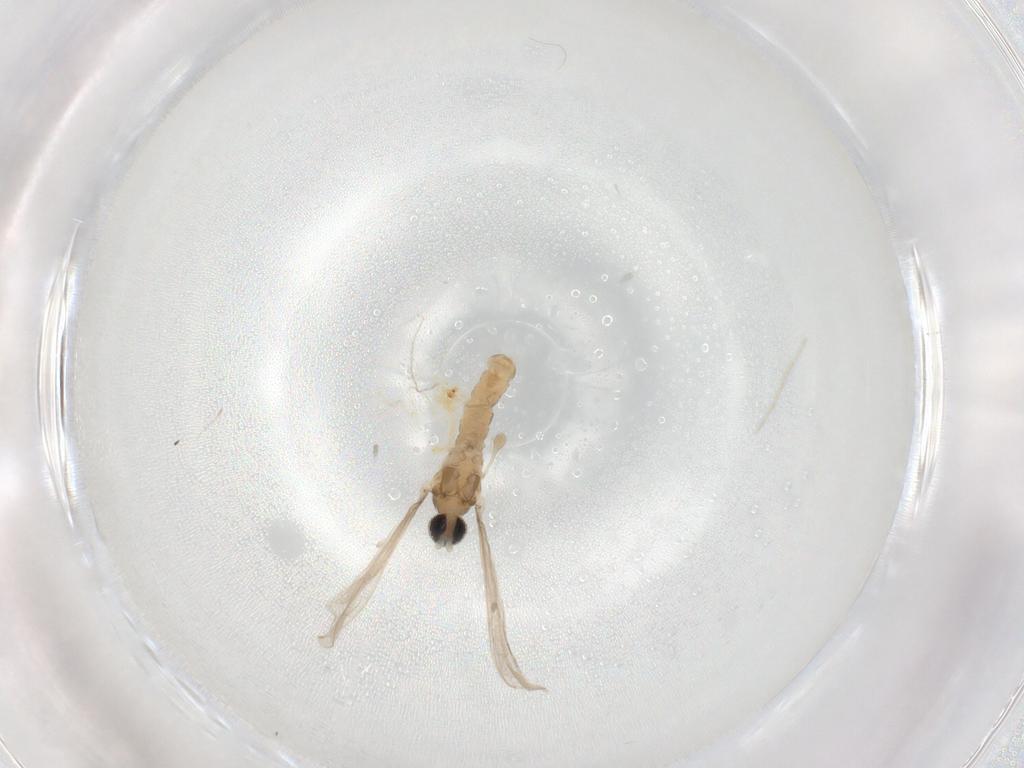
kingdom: Animalia
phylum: Arthropoda
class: Insecta
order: Diptera
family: Cecidomyiidae
